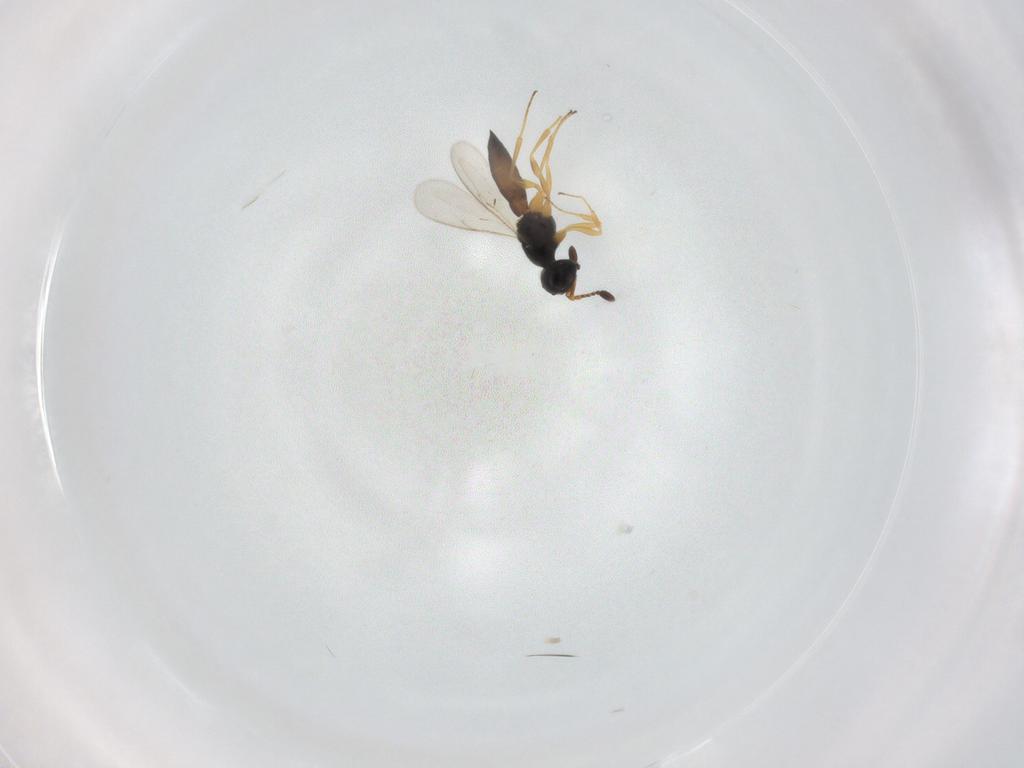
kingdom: Animalia
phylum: Arthropoda
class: Insecta
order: Hymenoptera
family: Scelionidae
